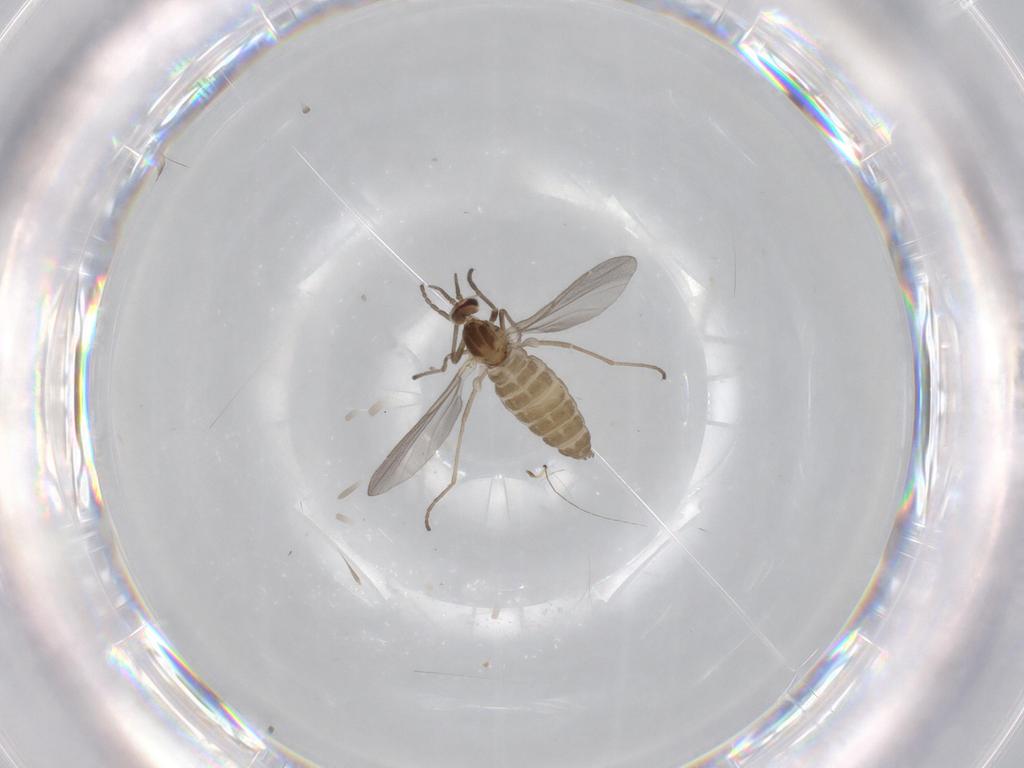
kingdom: Animalia
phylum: Arthropoda
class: Insecta
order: Diptera
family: Cecidomyiidae
